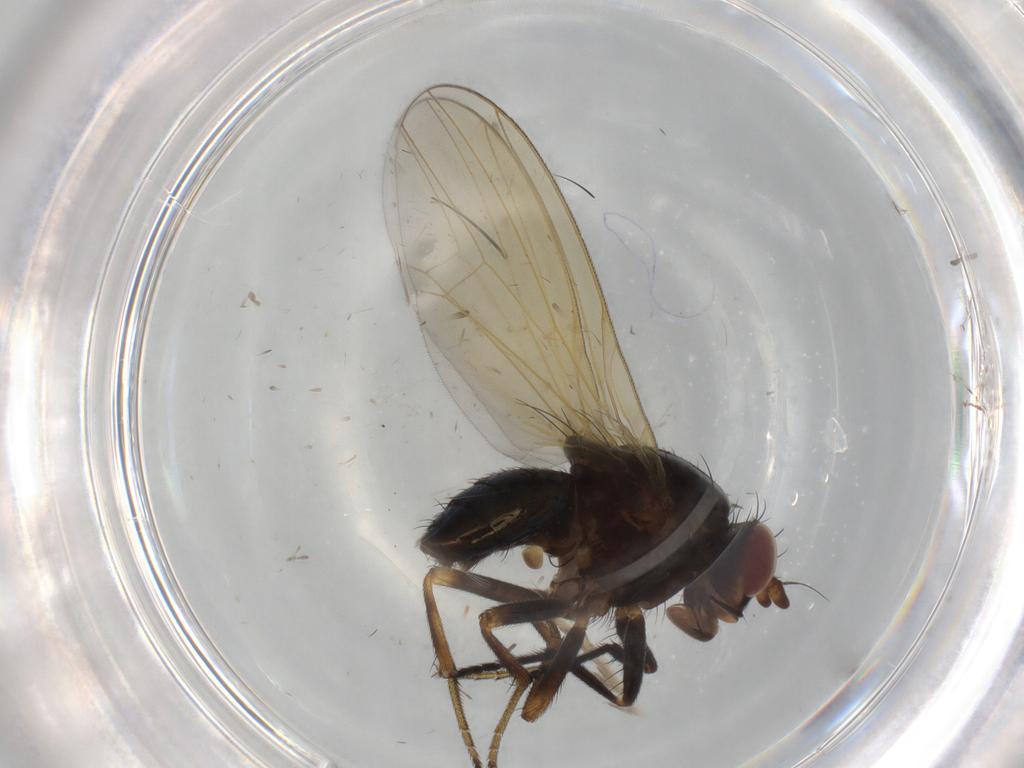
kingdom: Animalia
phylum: Arthropoda
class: Insecta
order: Diptera
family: Lauxaniidae
